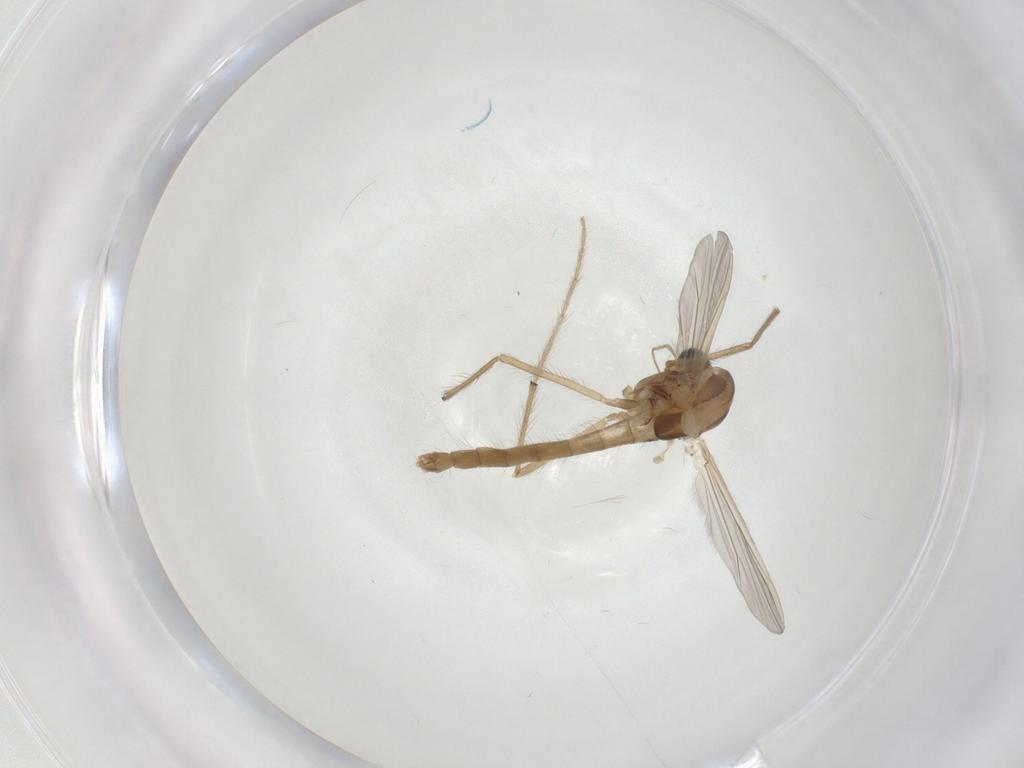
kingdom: Animalia
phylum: Arthropoda
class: Insecta
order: Diptera
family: Chironomidae
